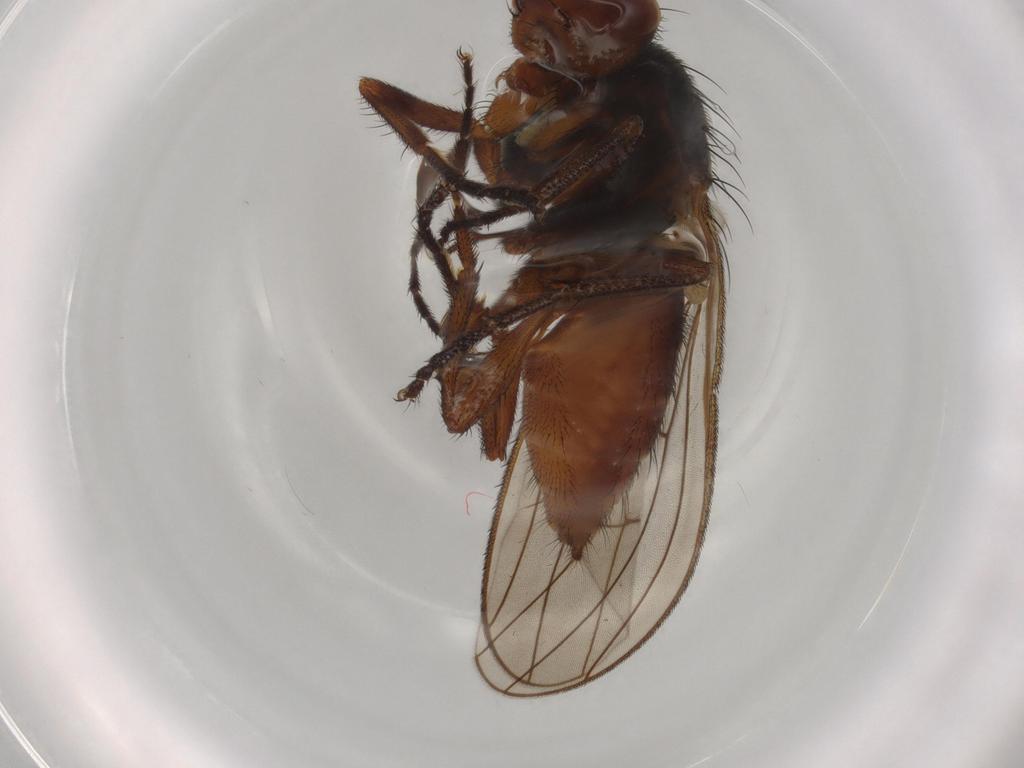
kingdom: Animalia
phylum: Arthropoda
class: Insecta
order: Diptera
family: Heleomyzidae
